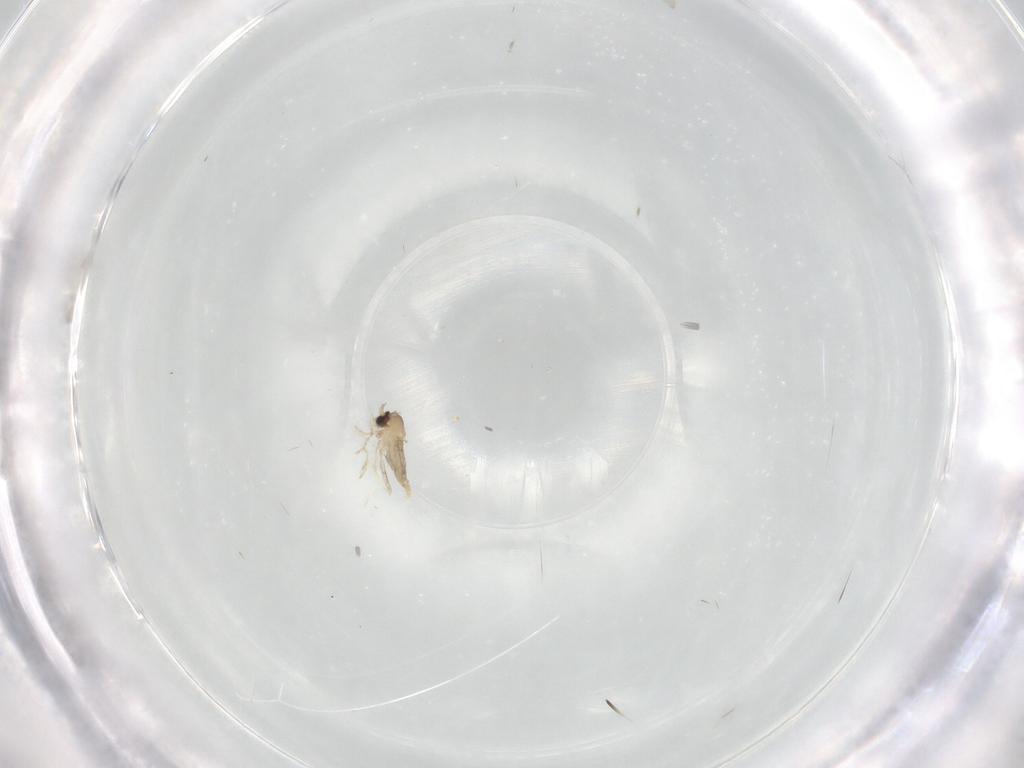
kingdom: Animalia
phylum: Arthropoda
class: Insecta
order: Diptera
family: Cecidomyiidae
